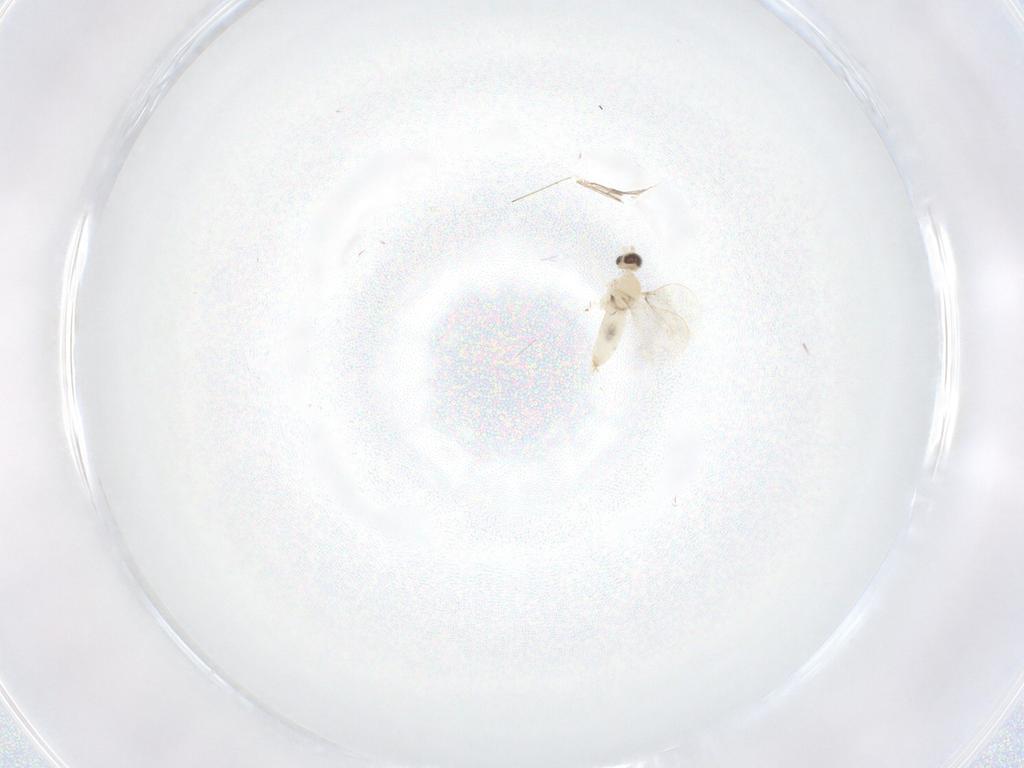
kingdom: Animalia
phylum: Arthropoda
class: Insecta
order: Diptera
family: Cecidomyiidae
